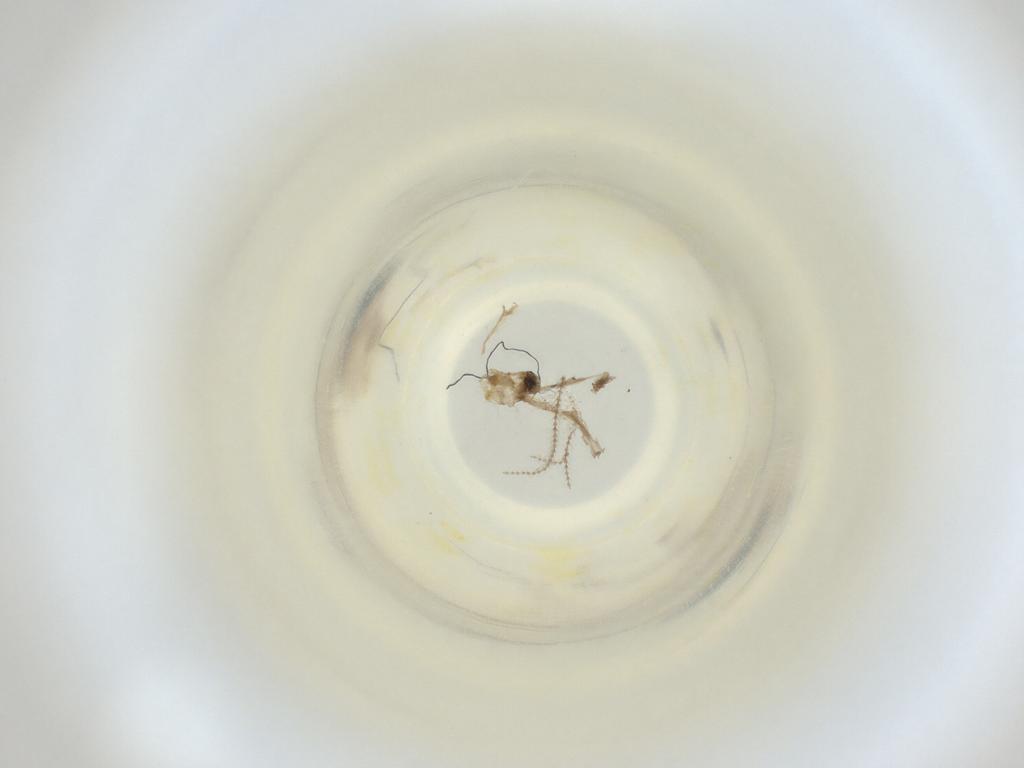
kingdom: Animalia
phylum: Arthropoda
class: Insecta
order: Diptera
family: Cecidomyiidae
